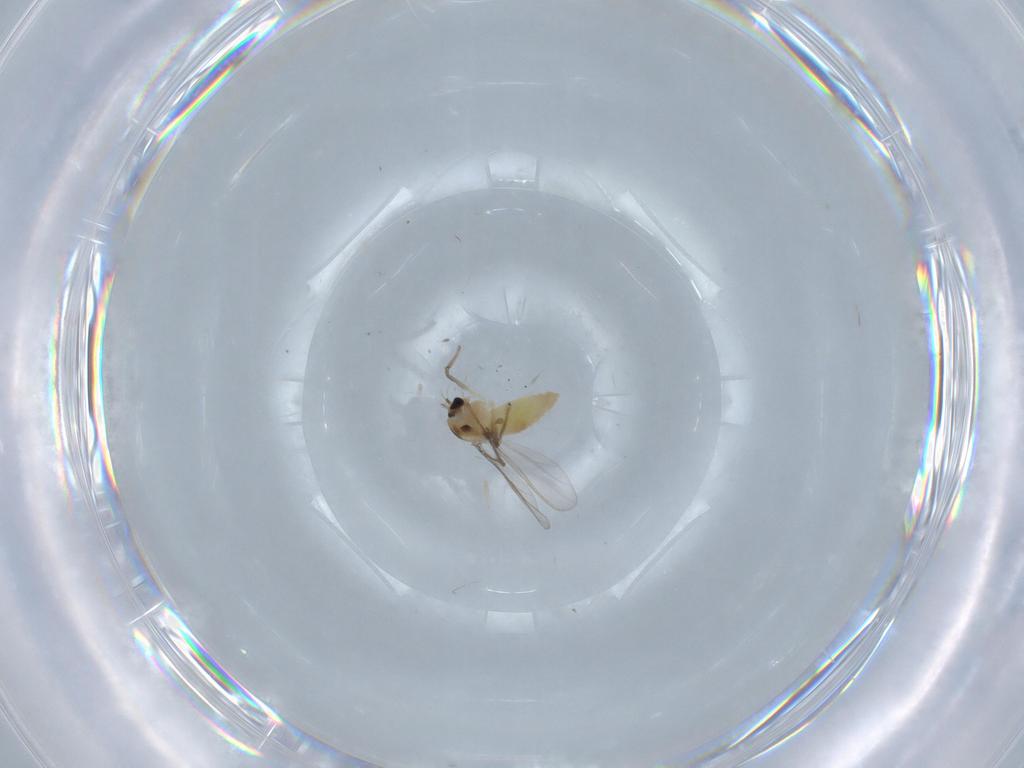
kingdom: Animalia
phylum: Arthropoda
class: Insecta
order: Diptera
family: Chironomidae
